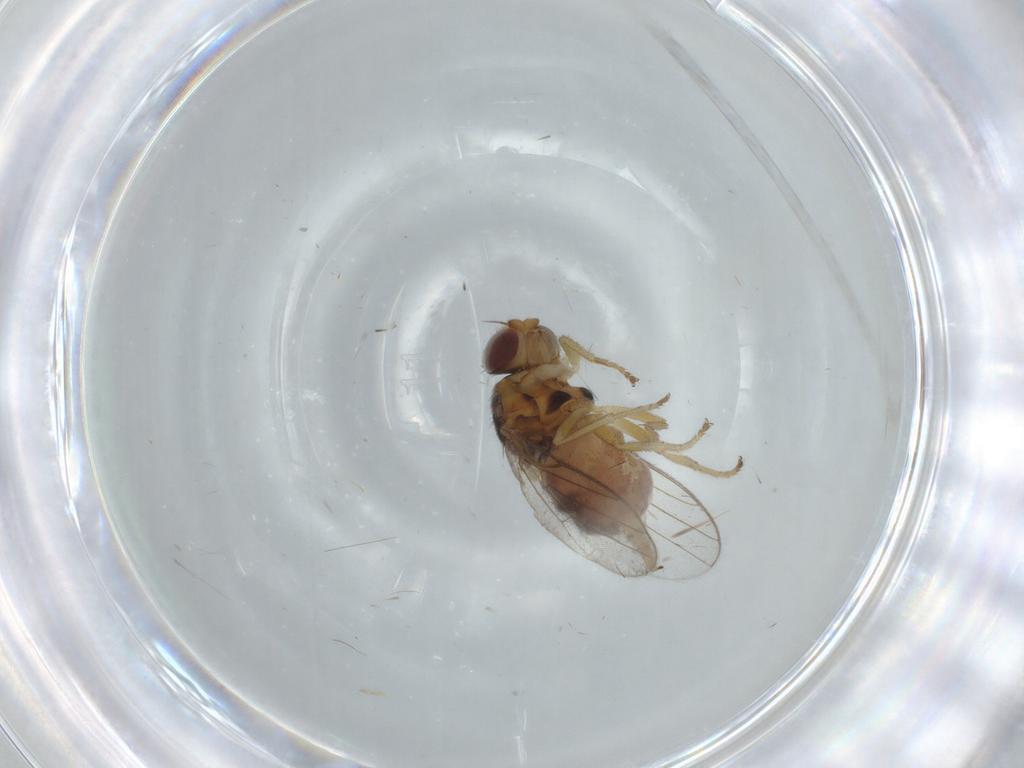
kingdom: Animalia
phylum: Arthropoda
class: Insecta
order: Diptera
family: Chloropidae
